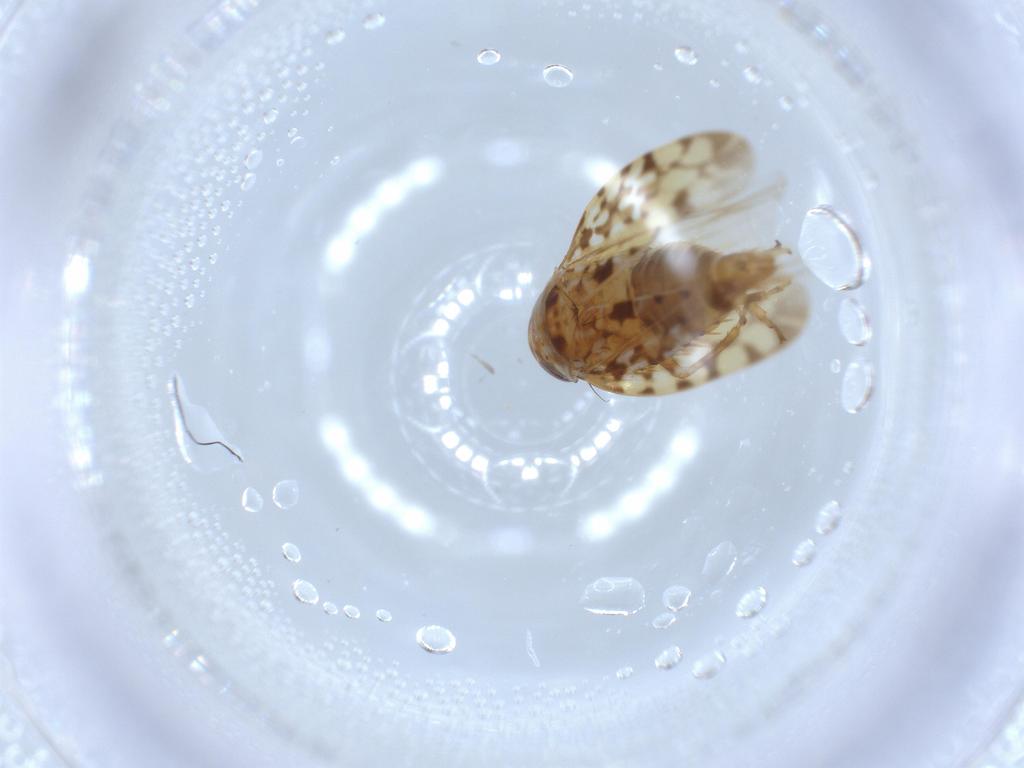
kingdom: Animalia
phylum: Arthropoda
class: Insecta
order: Hemiptera
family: Cicadellidae
